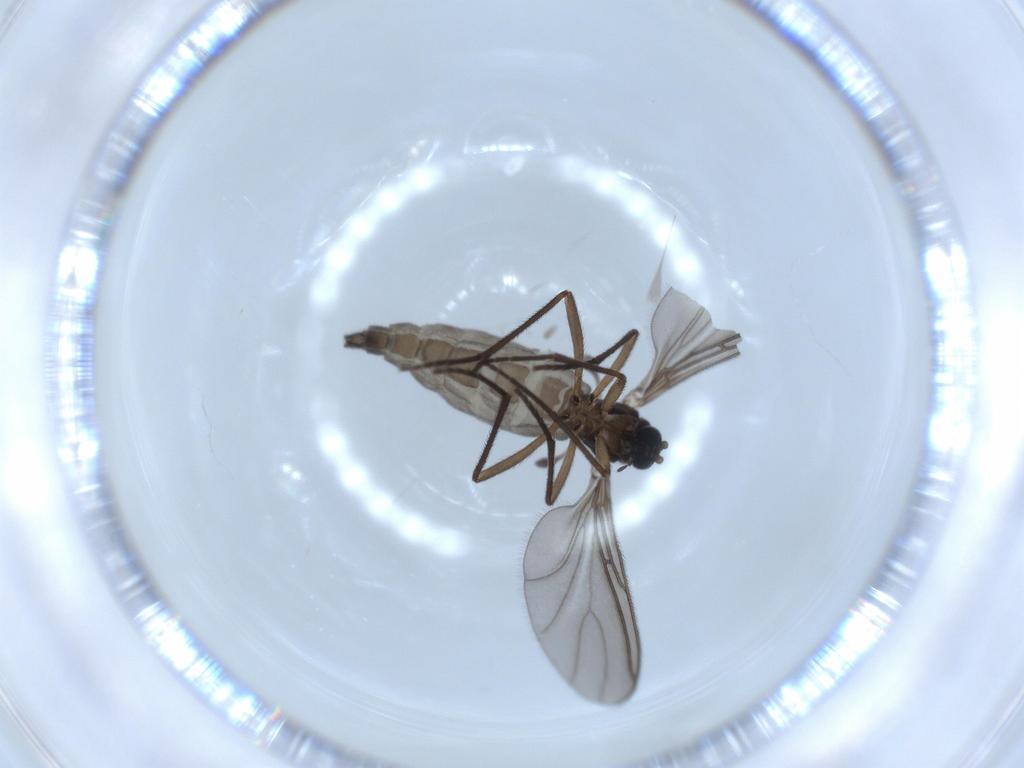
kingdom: Animalia
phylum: Arthropoda
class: Insecta
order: Diptera
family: Sciaridae
